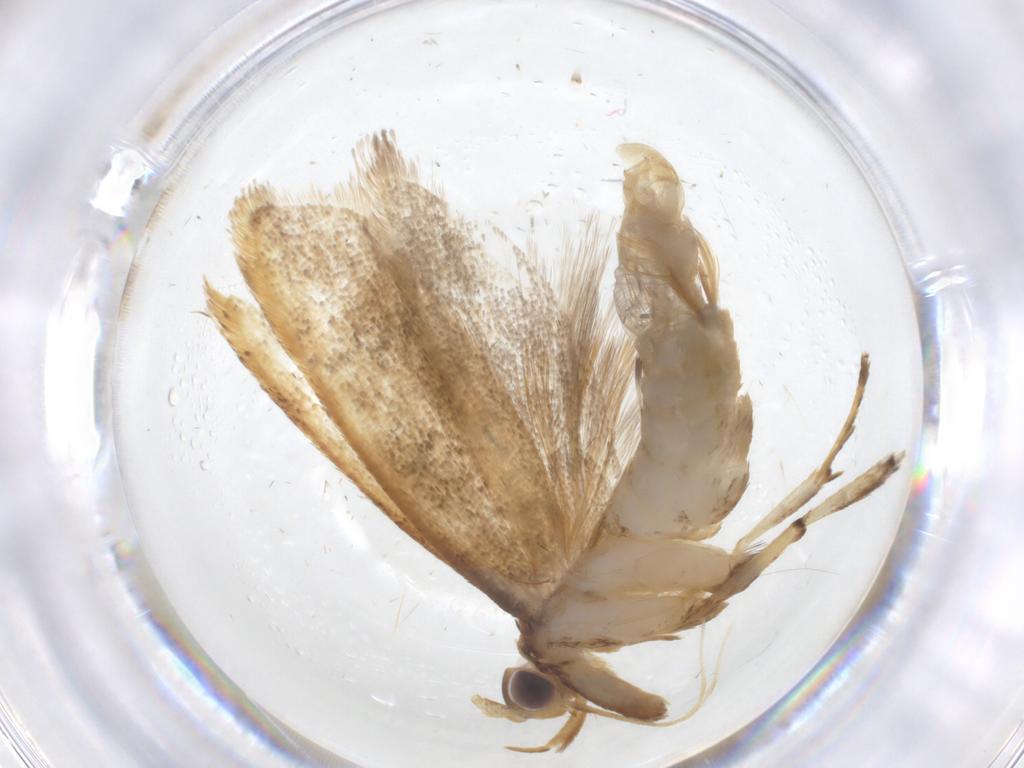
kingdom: Animalia
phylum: Arthropoda
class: Insecta
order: Lepidoptera
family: Lecithoceridae
